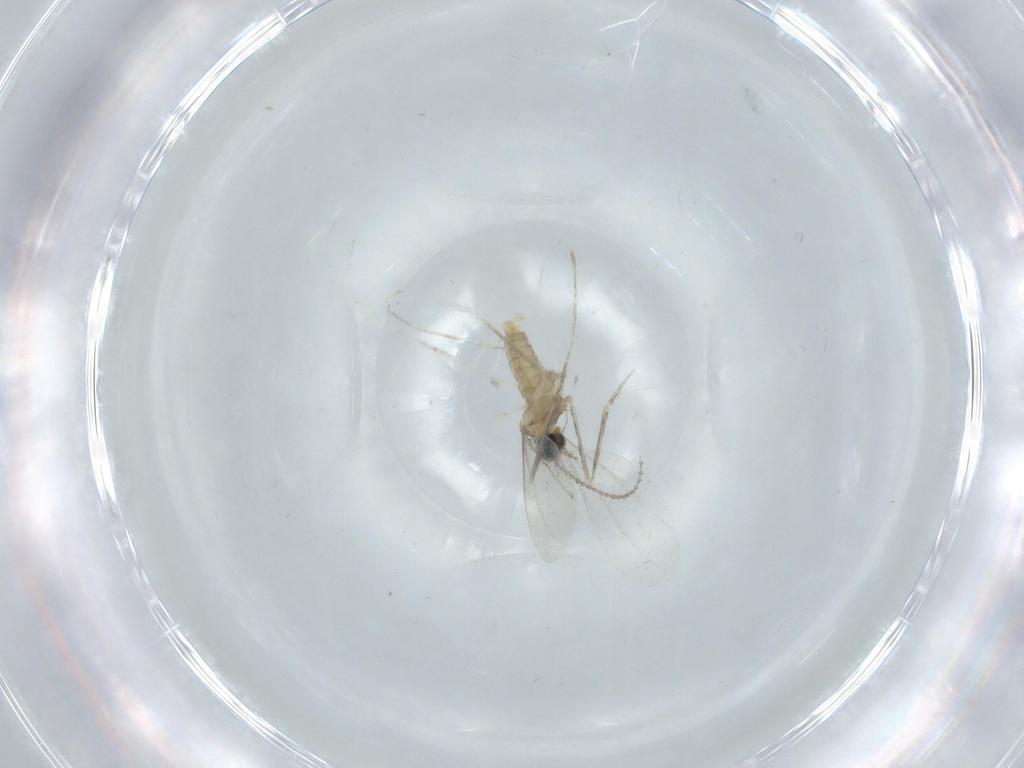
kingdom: Animalia
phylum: Arthropoda
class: Insecta
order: Diptera
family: Cecidomyiidae
